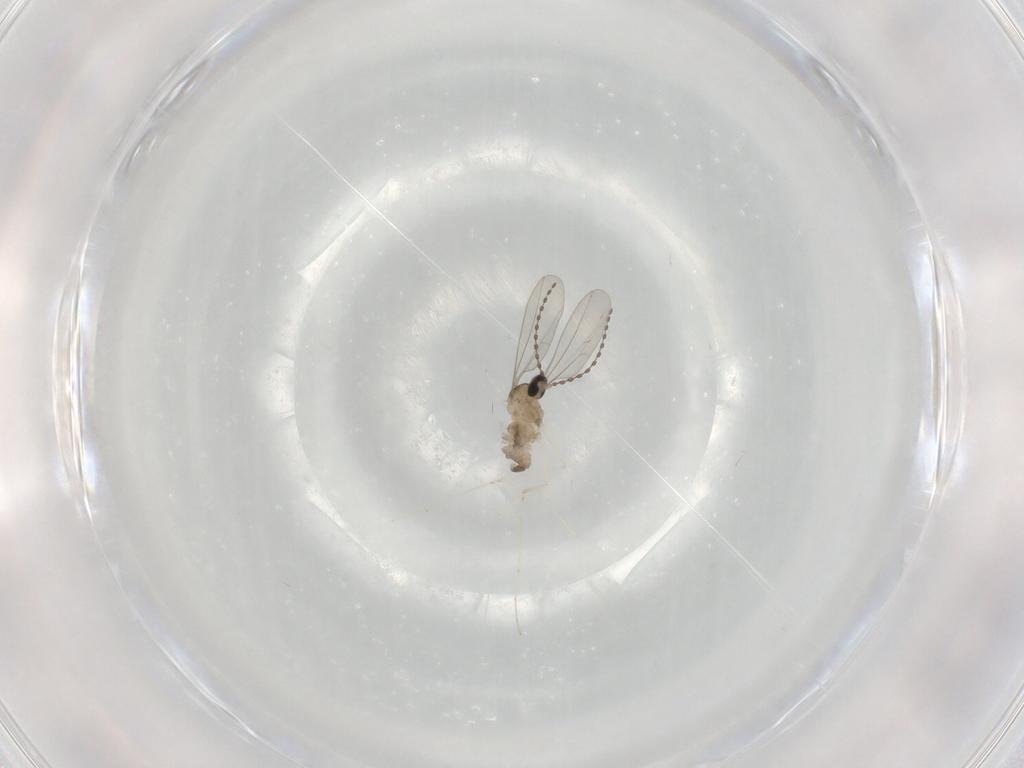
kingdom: Animalia
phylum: Arthropoda
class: Insecta
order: Diptera
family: Cecidomyiidae
